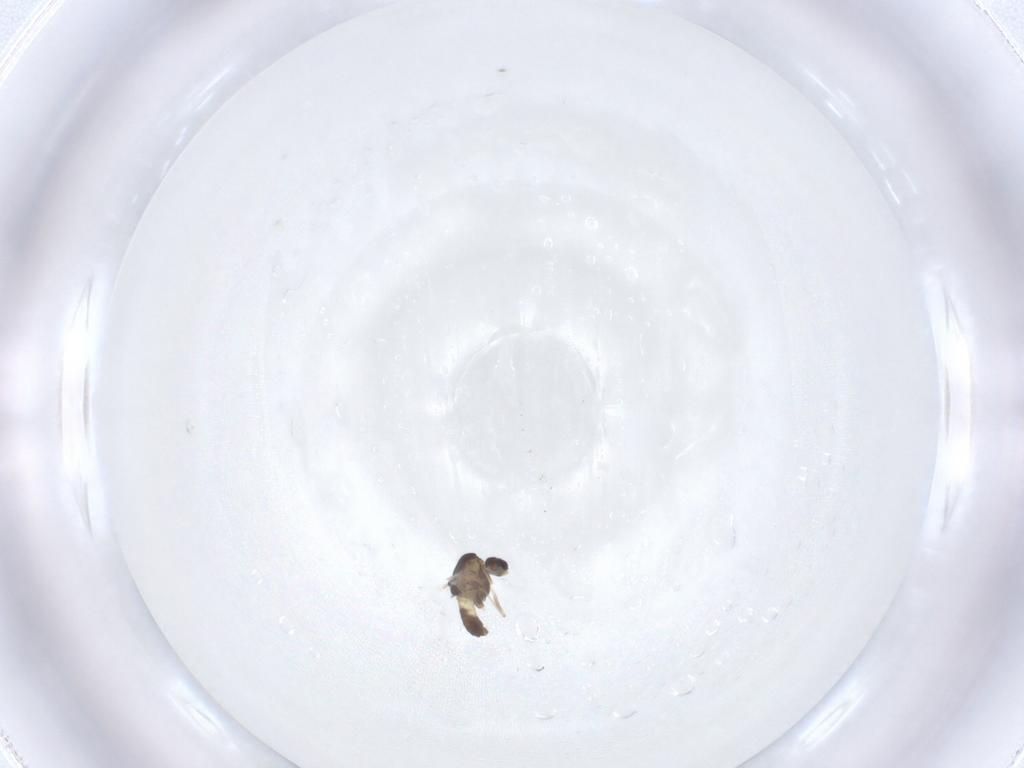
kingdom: Animalia
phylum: Arthropoda
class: Insecta
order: Diptera
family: Chironomidae
